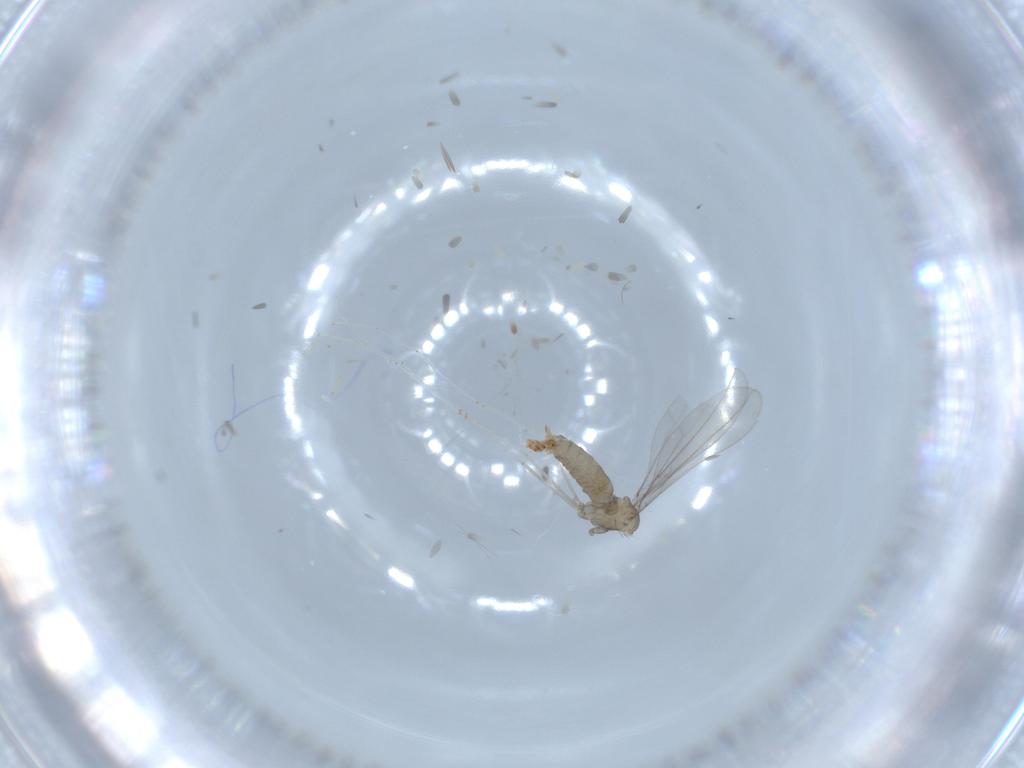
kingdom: Animalia
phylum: Arthropoda
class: Insecta
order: Diptera
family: Cecidomyiidae
